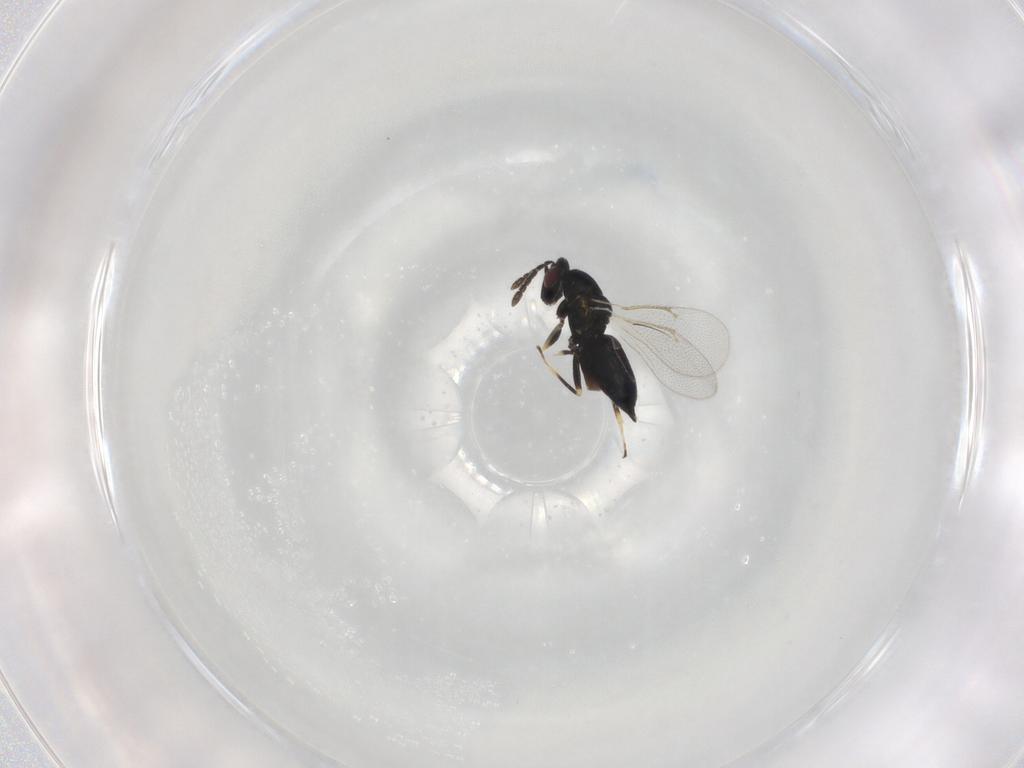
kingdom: Animalia
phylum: Arthropoda
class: Insecta
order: Hymenoptera
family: Eulophidae
